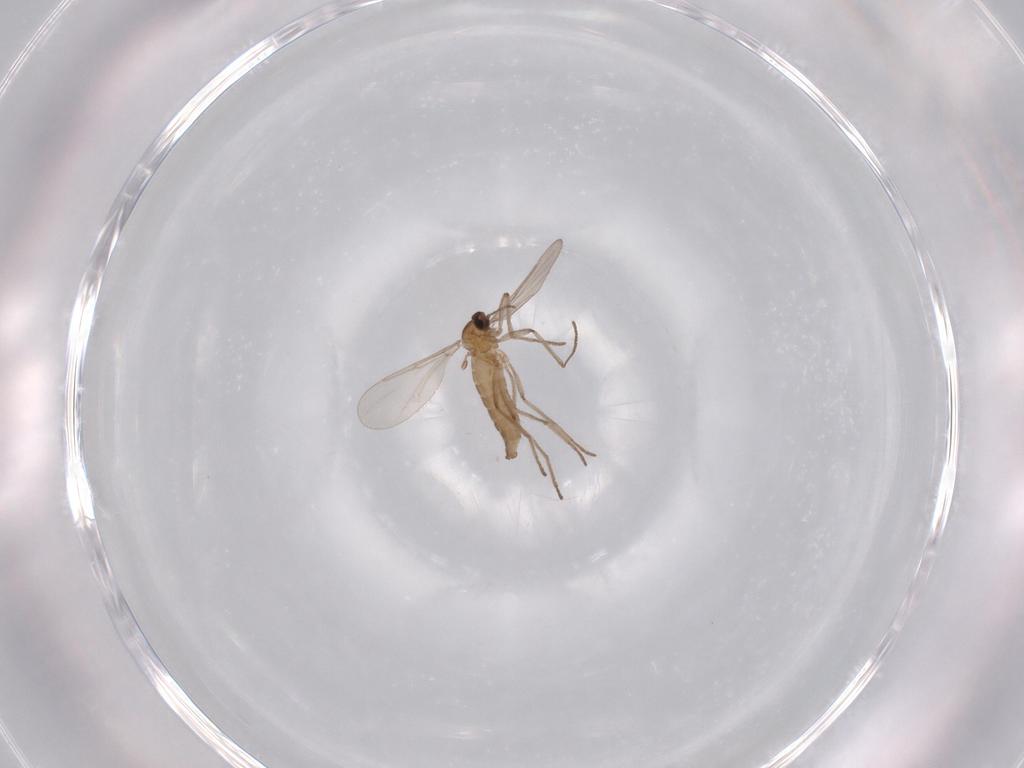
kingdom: Animalia
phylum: Arthropoda
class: Insecta
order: Diptera
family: Cecidomyiidae
